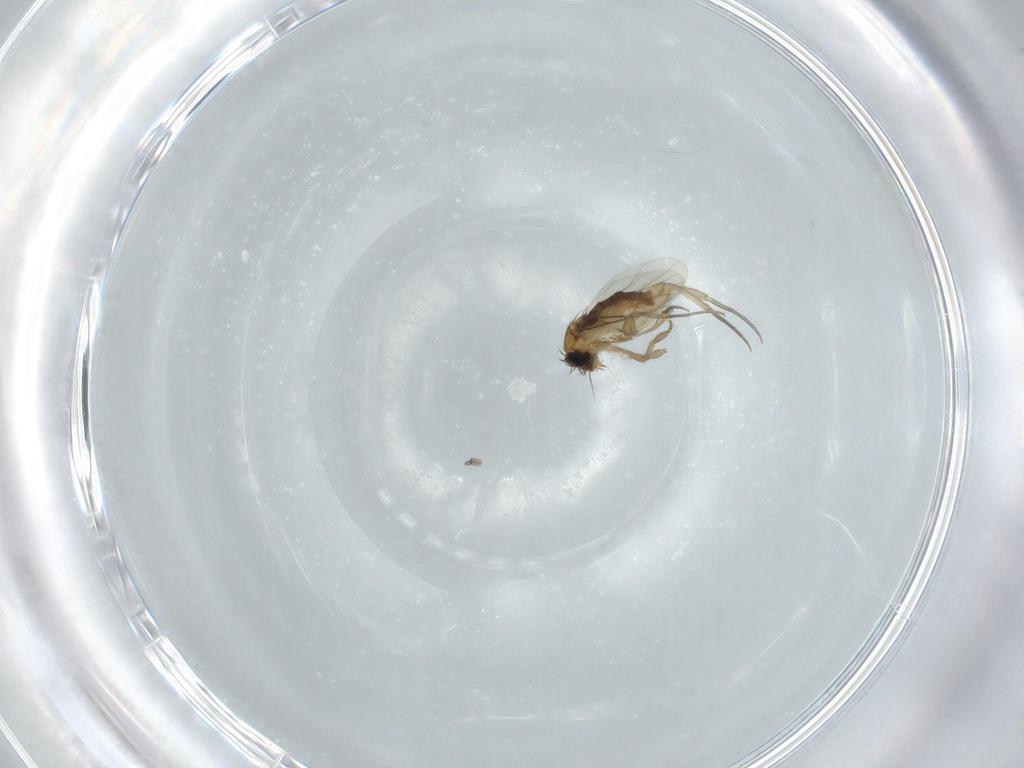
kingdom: Animalia
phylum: Arthropoda
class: Insecta
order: Diptera
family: Phoridae
